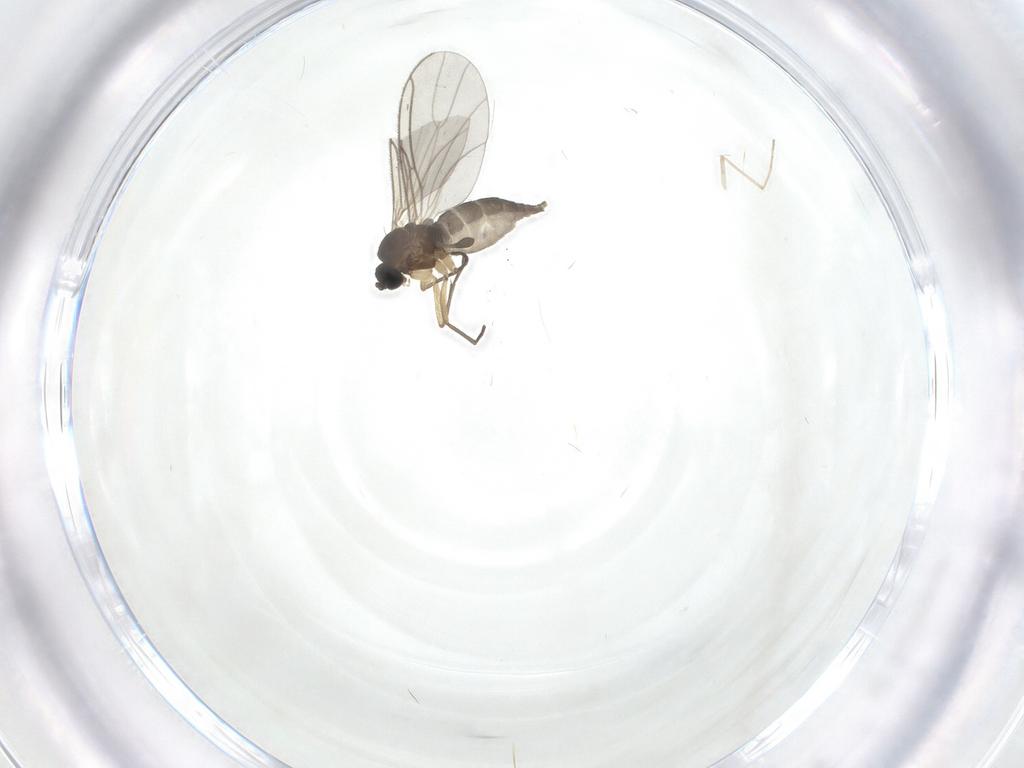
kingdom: Animalia
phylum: Arthropoda
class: Insecta
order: Diptera
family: Sciaridae
